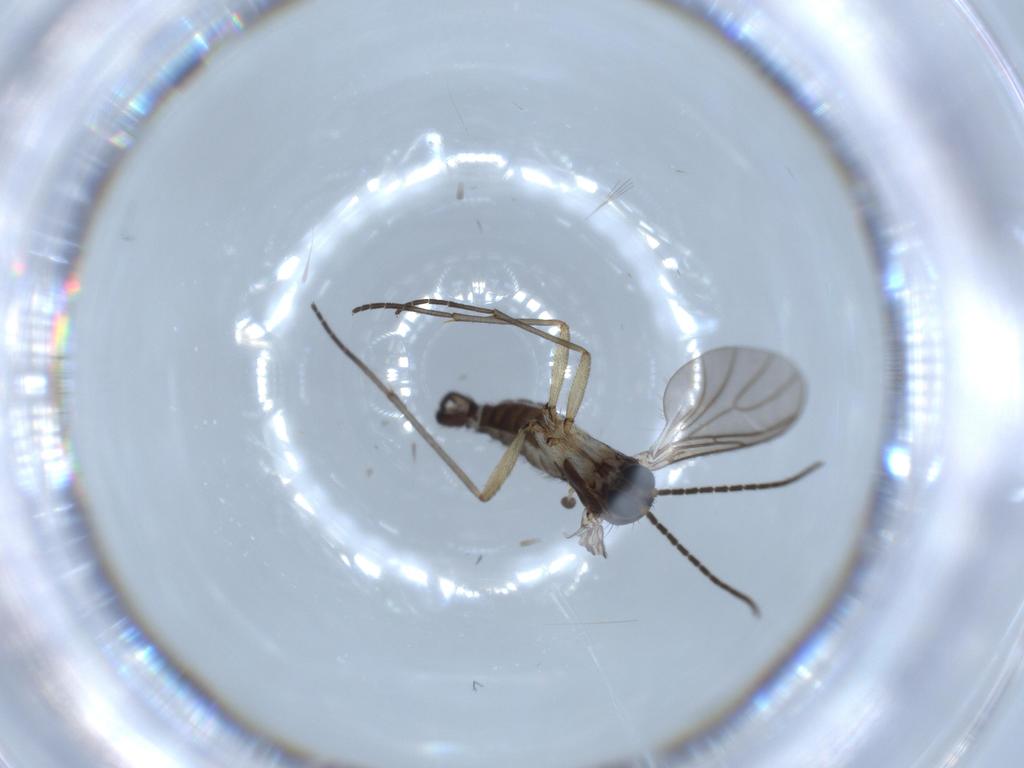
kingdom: Animalia
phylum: Arthropoda
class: Insecta
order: Diptera
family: Sciaridae
